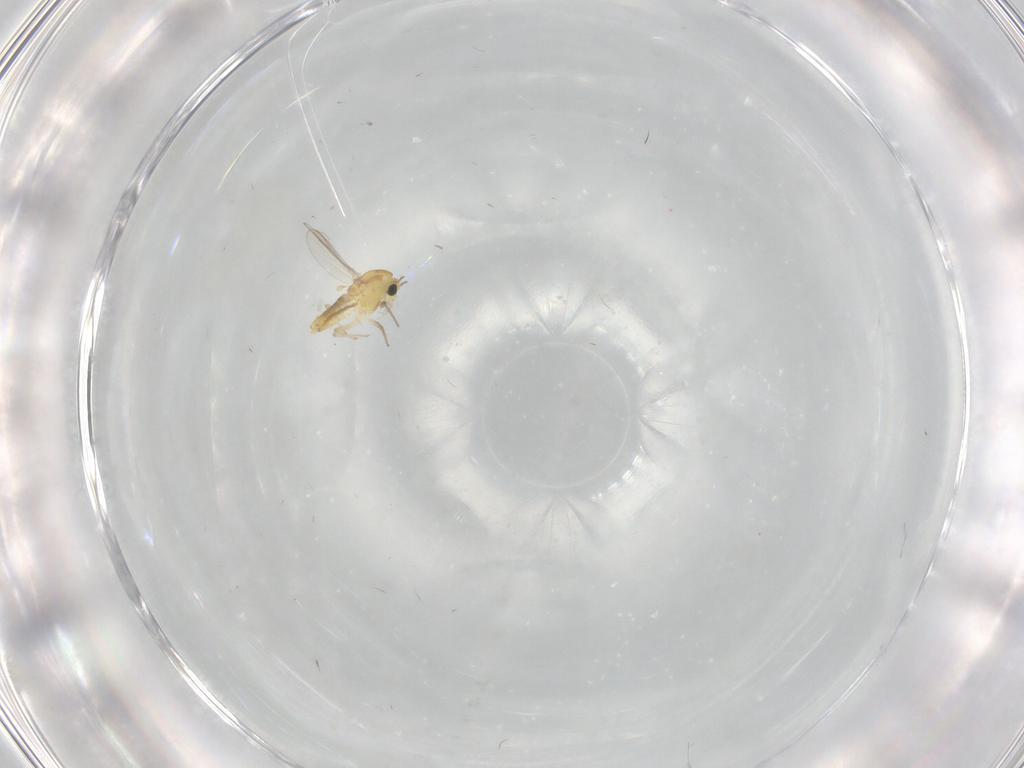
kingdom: Animalia
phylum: Arthropoda
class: Insecta
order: Diptera
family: Chironomidae
